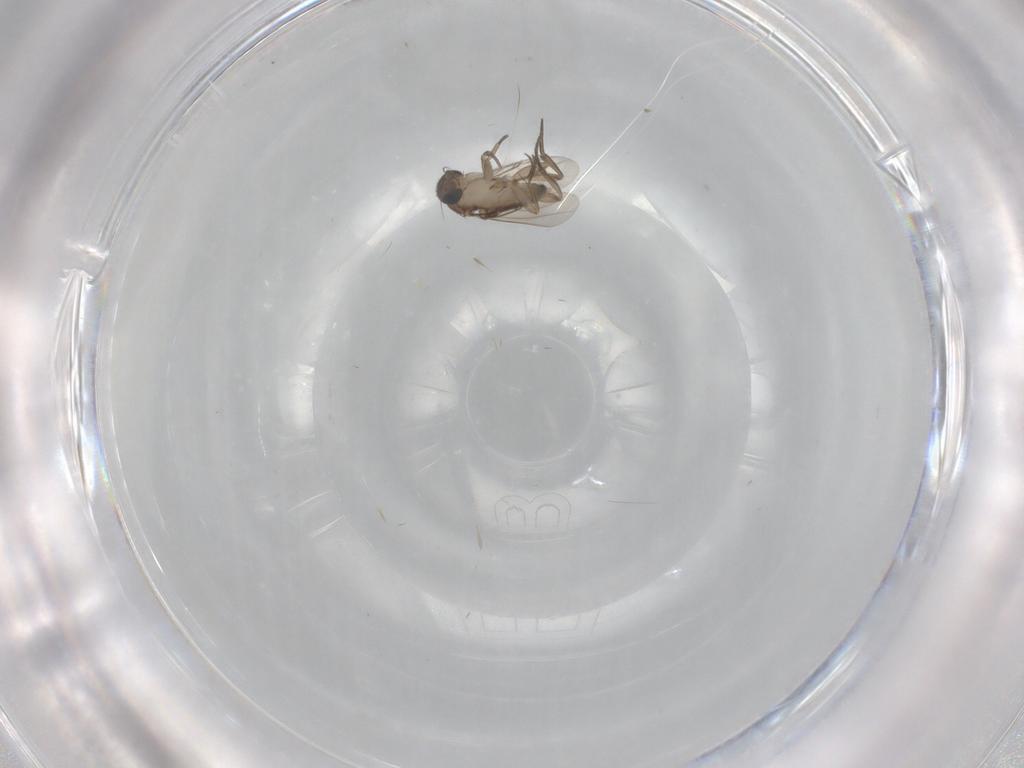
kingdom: Animalia
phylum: Arthropoda
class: Insecta
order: Diptera
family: Phoridae
